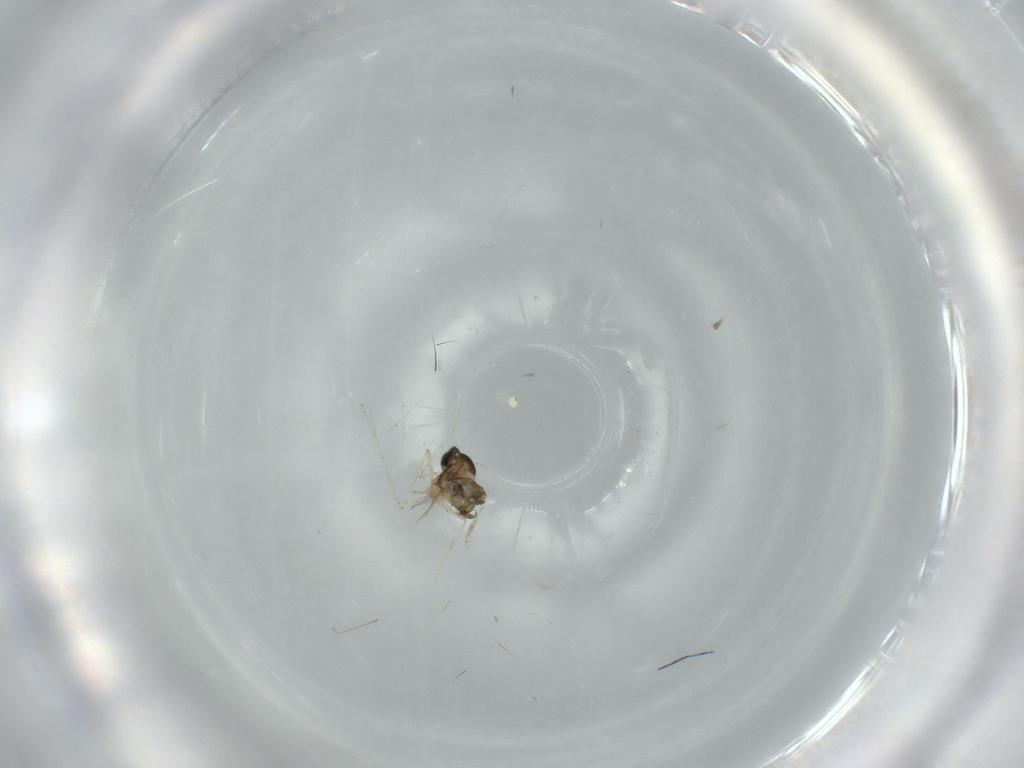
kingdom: Animalia
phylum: Arthropoda
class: Insecta
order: Diptera
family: Cecidomyiidae
